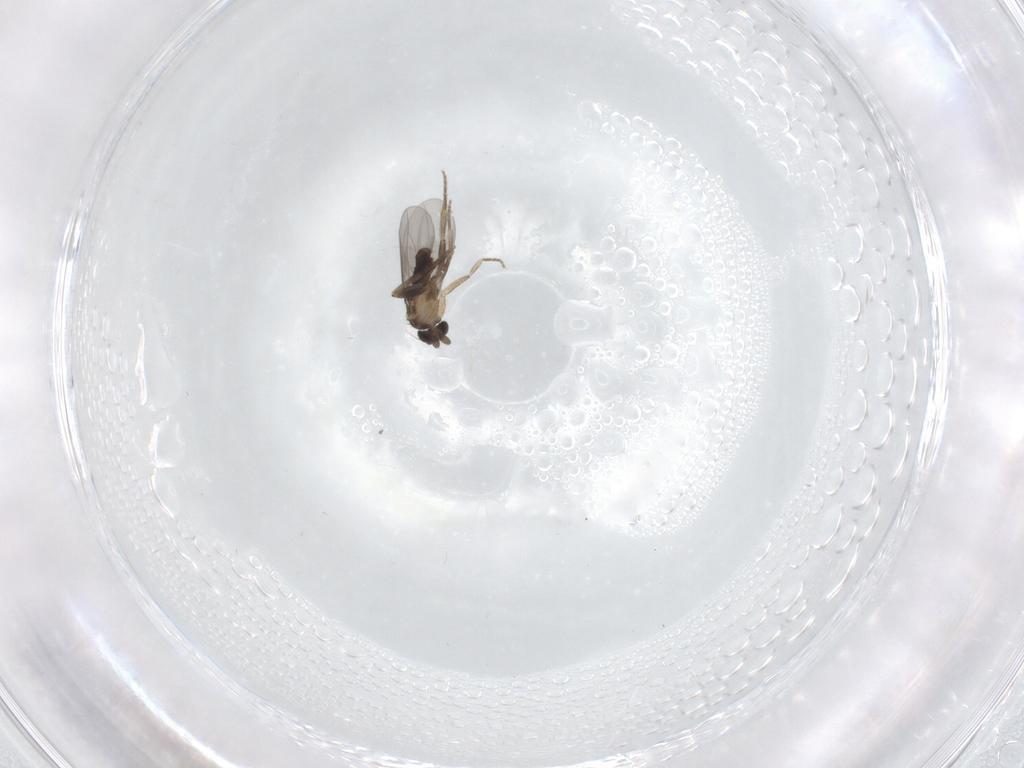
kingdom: Animalia
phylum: Arthropoda
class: Insecta
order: Diptera
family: Ceratopogonidae
